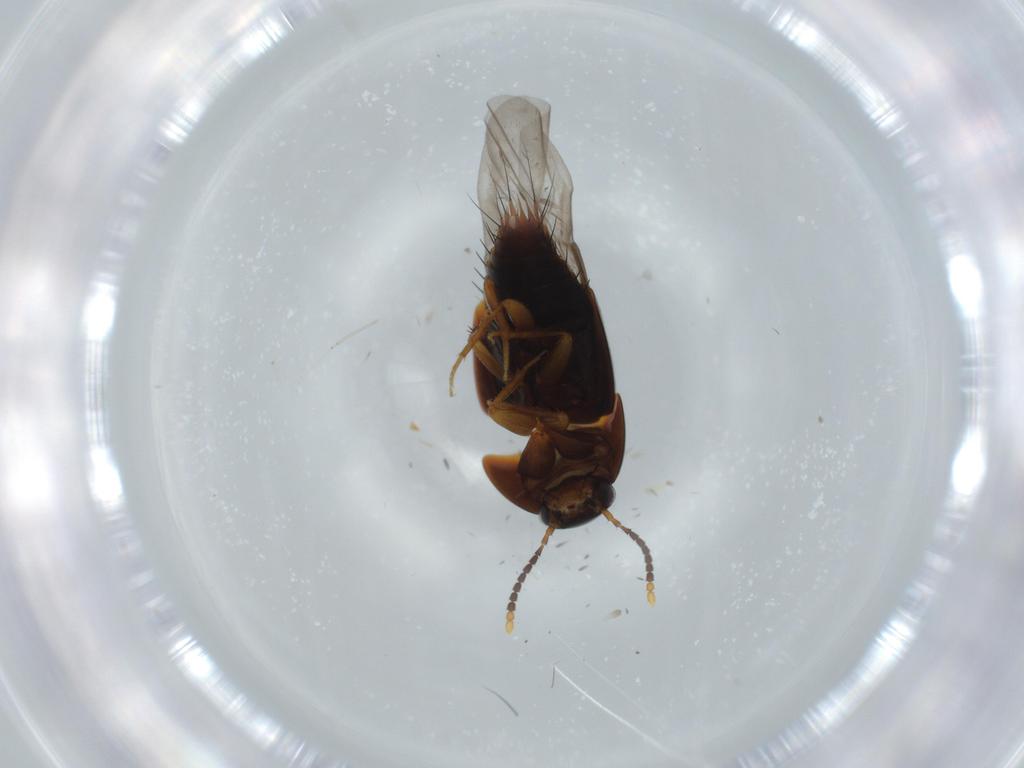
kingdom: Animalia
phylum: Arthropoda
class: Insecta
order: Coleoptera
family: Staphylinidae
